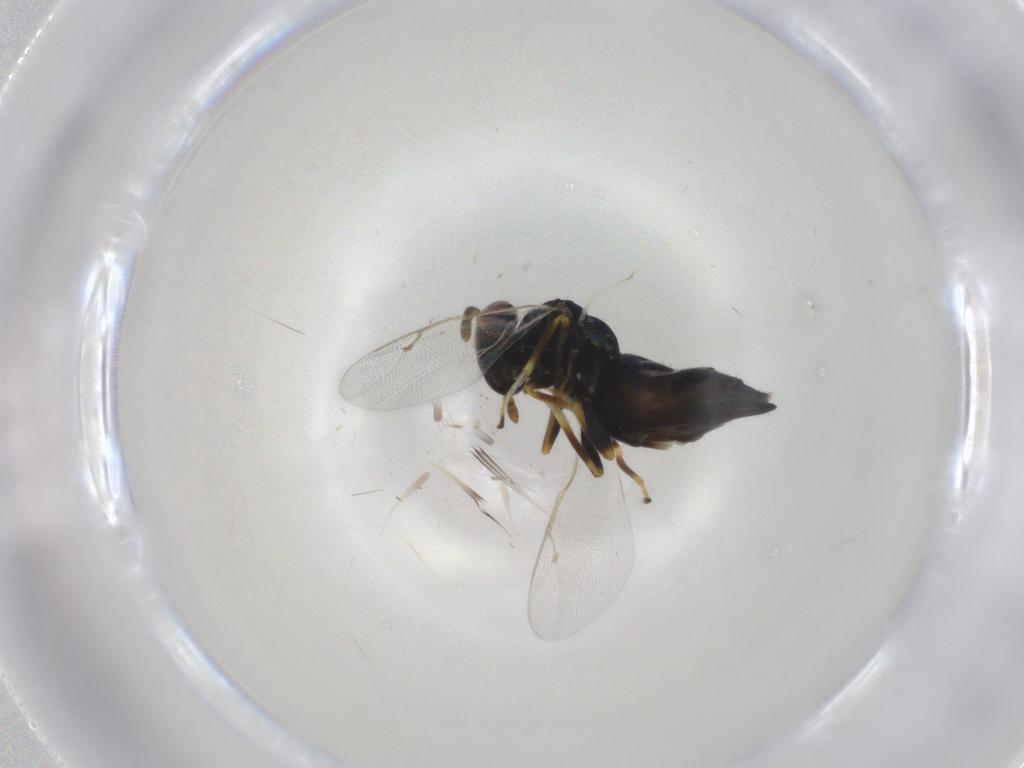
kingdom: Animalia
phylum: Arthropoda
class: Insecta
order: Hymenoptera
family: Pteromalidae
